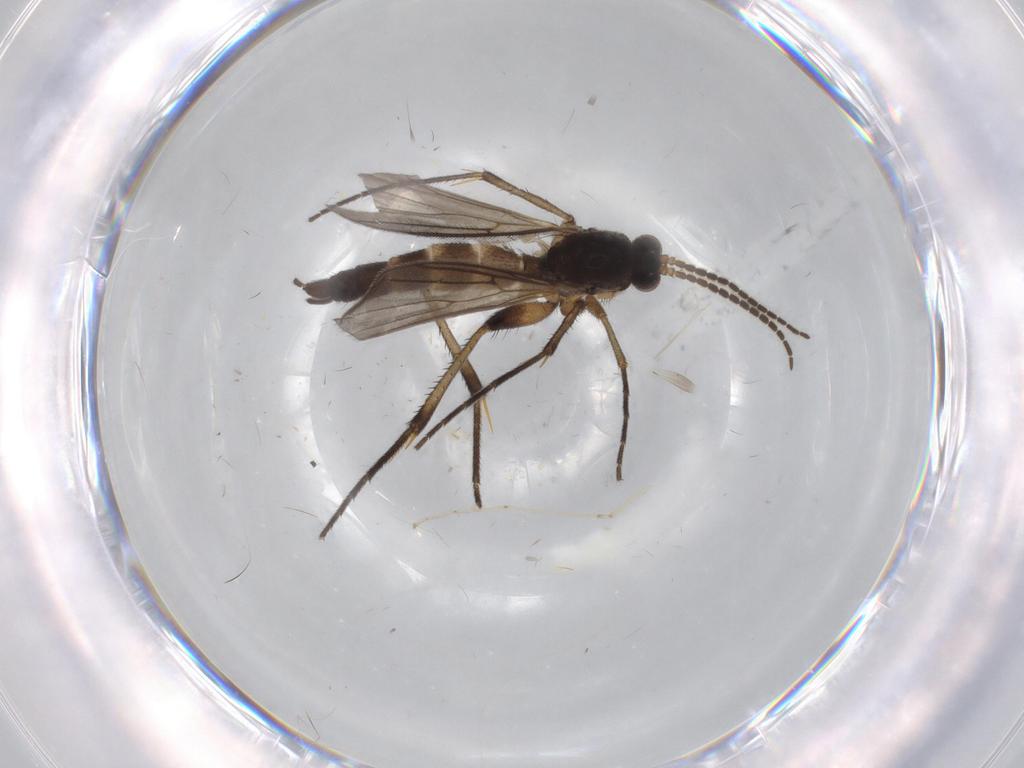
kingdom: Animalia
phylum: Arthropoda
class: Insecta
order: Diptera
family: Mycetophilidae
